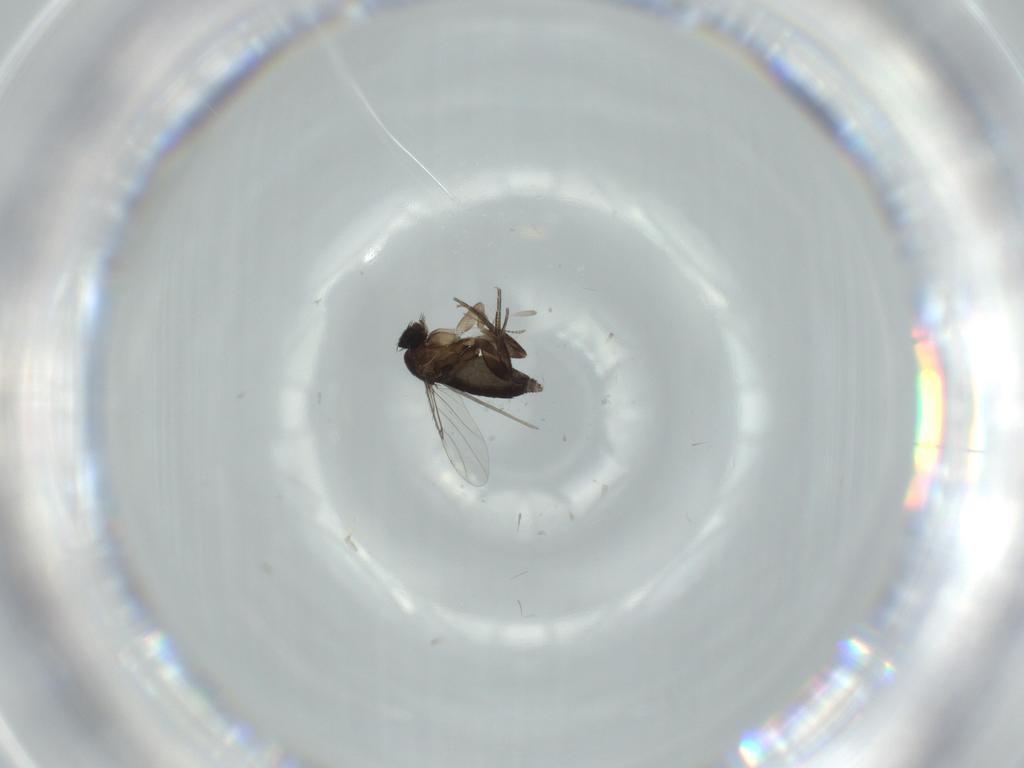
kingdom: Animalia
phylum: Arthropoda
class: Insecta
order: Diptera
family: Phoridae
